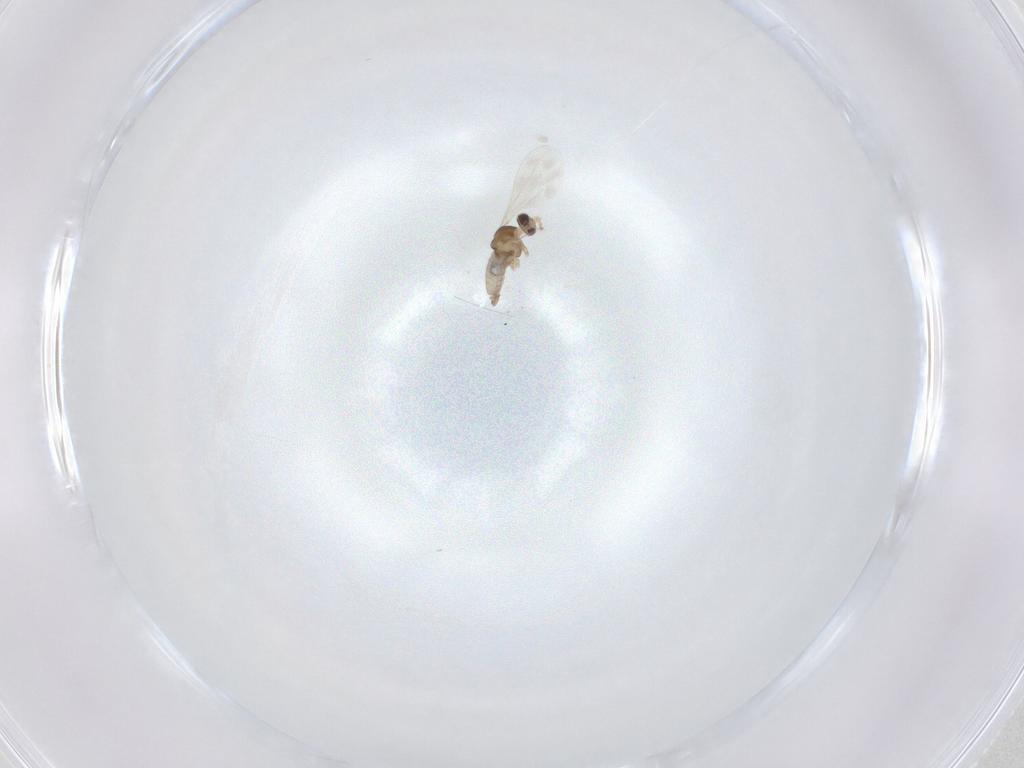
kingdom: Animalia
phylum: Arthropoda
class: Insecta
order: Diptera
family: Cecidomyiidae
